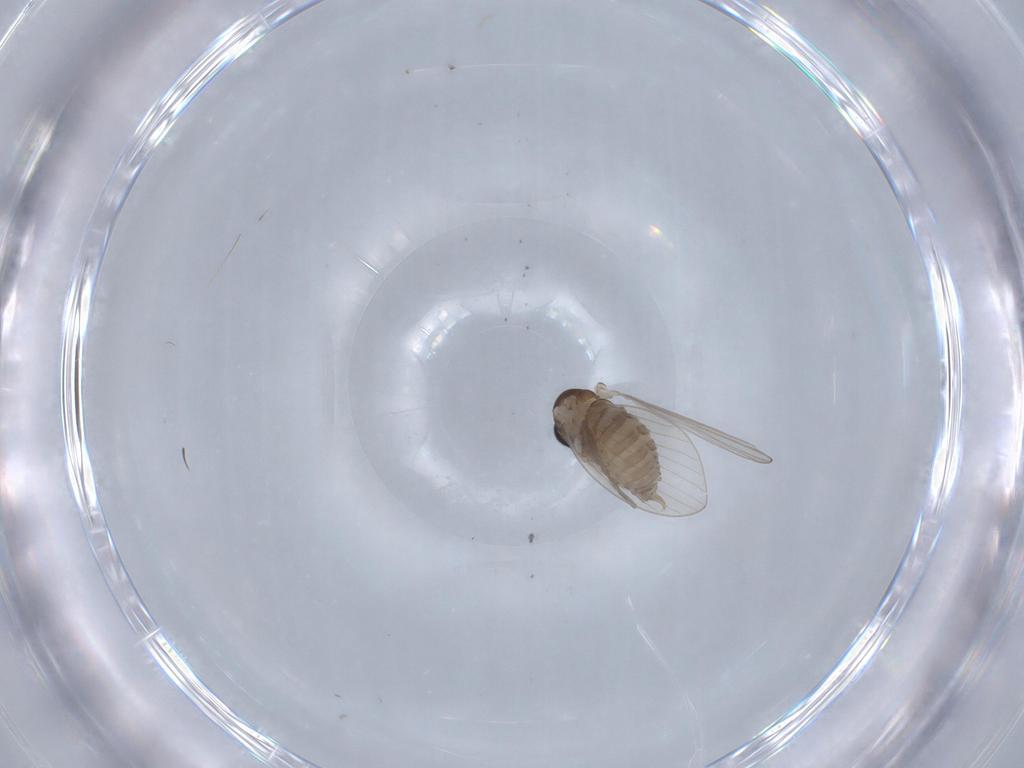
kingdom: Animalia
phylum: Arthropoda
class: Insecta
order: Diptera
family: Psychodidae
